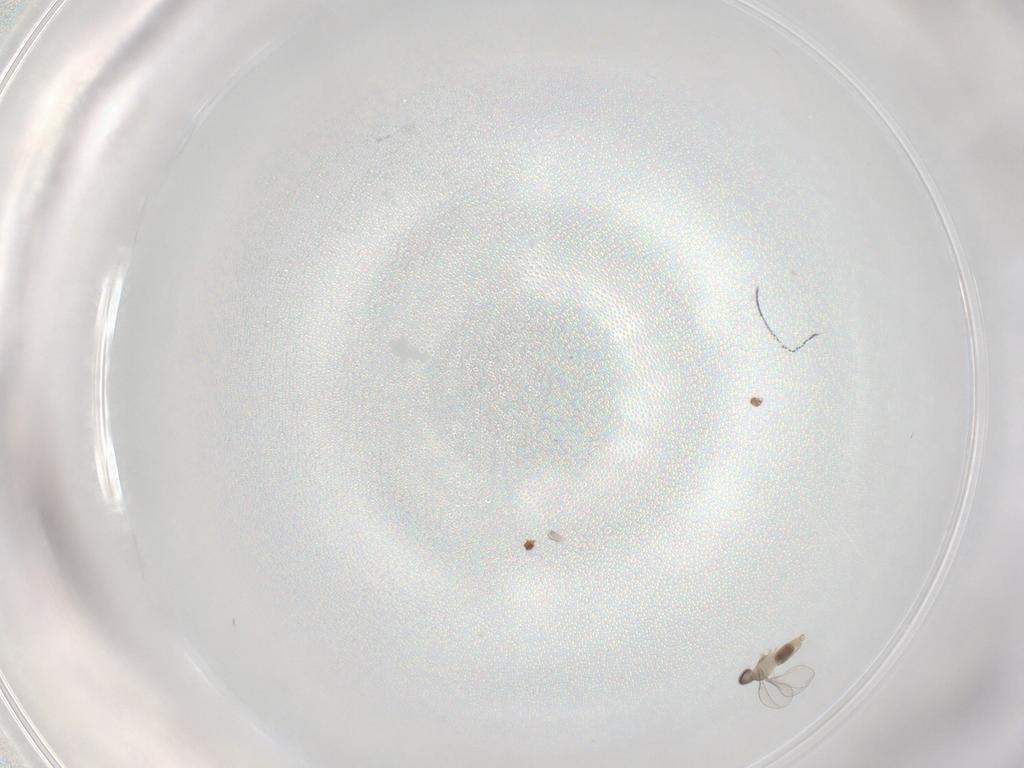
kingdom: Animalia
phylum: Arthropoda
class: Insecta
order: Diptera
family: Cecidomyiidae
